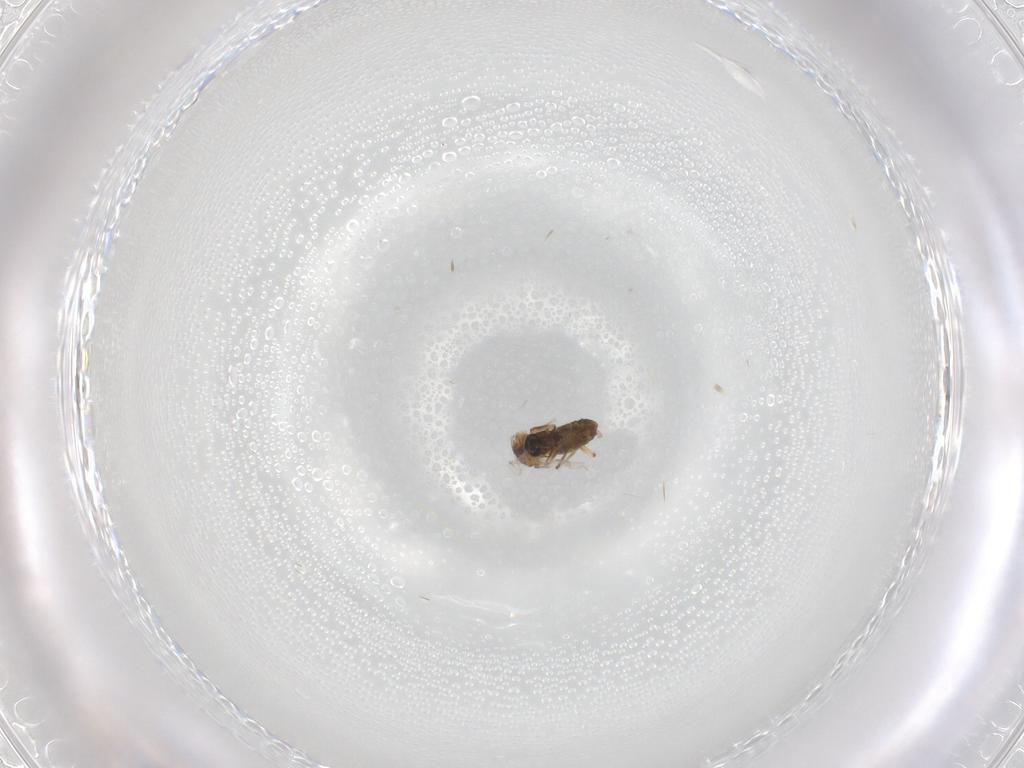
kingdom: Animalia
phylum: Arthropoda
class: Insecta
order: Diptera
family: Ceratopogonidae
